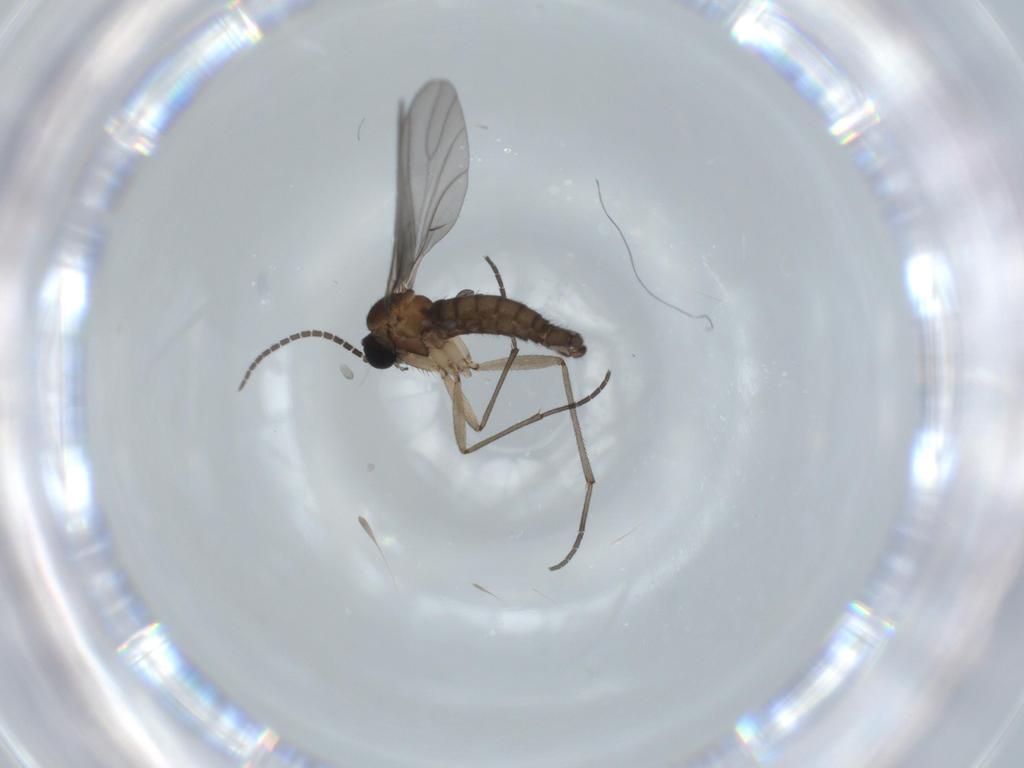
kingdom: Animalia
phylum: Arthropoda
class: Insecta
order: Diptera
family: Sciaridae
